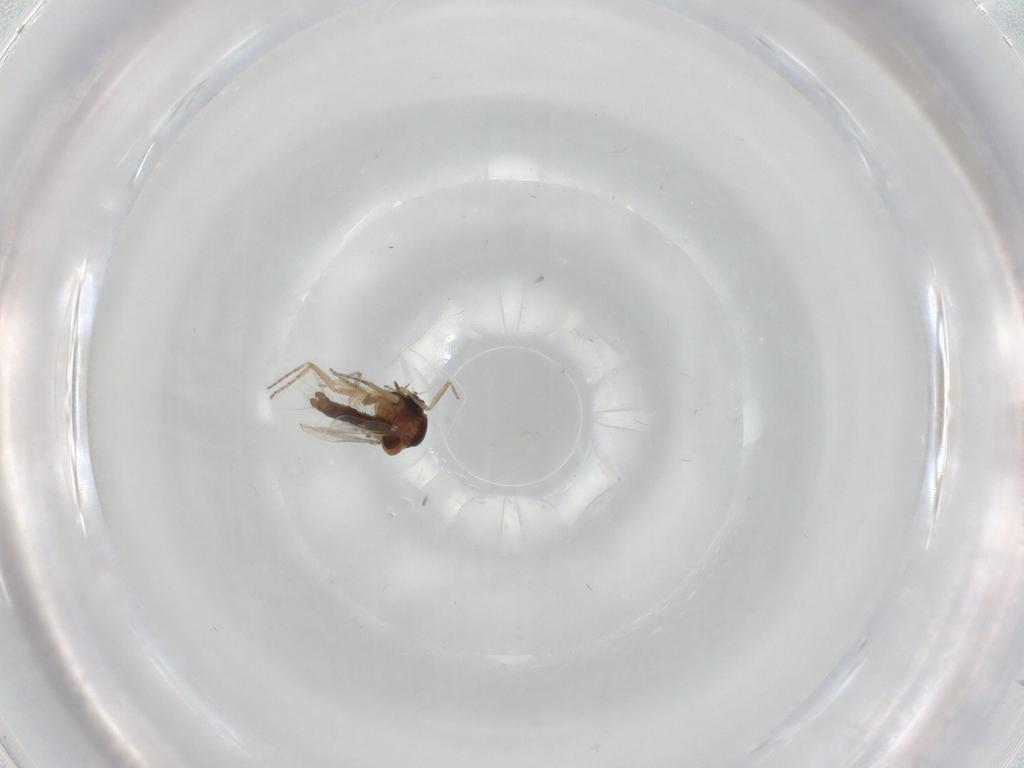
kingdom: Animalia
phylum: Arthropoda
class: Insecta
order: Diptera
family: Ceratopogonidae
